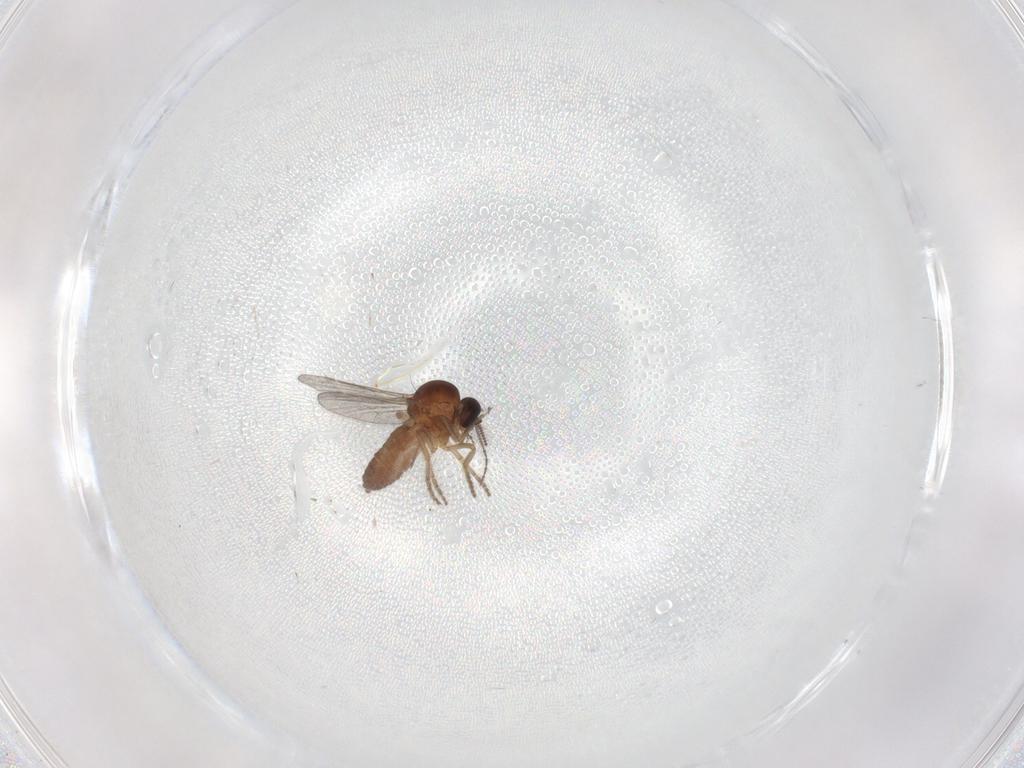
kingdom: Animalia
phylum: Arthropoda
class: Insecta
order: Diptera
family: Ceratopogonidae
